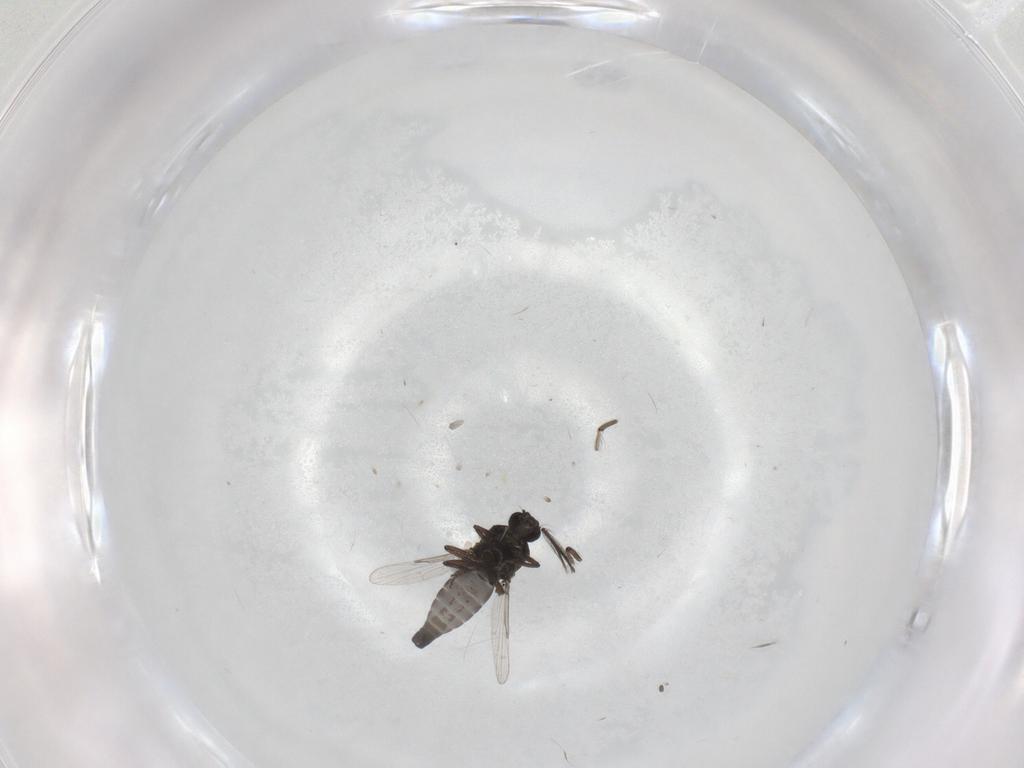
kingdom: Animalia
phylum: Arthropoda
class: Insecta
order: Diptera
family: Ceratopogonidae
